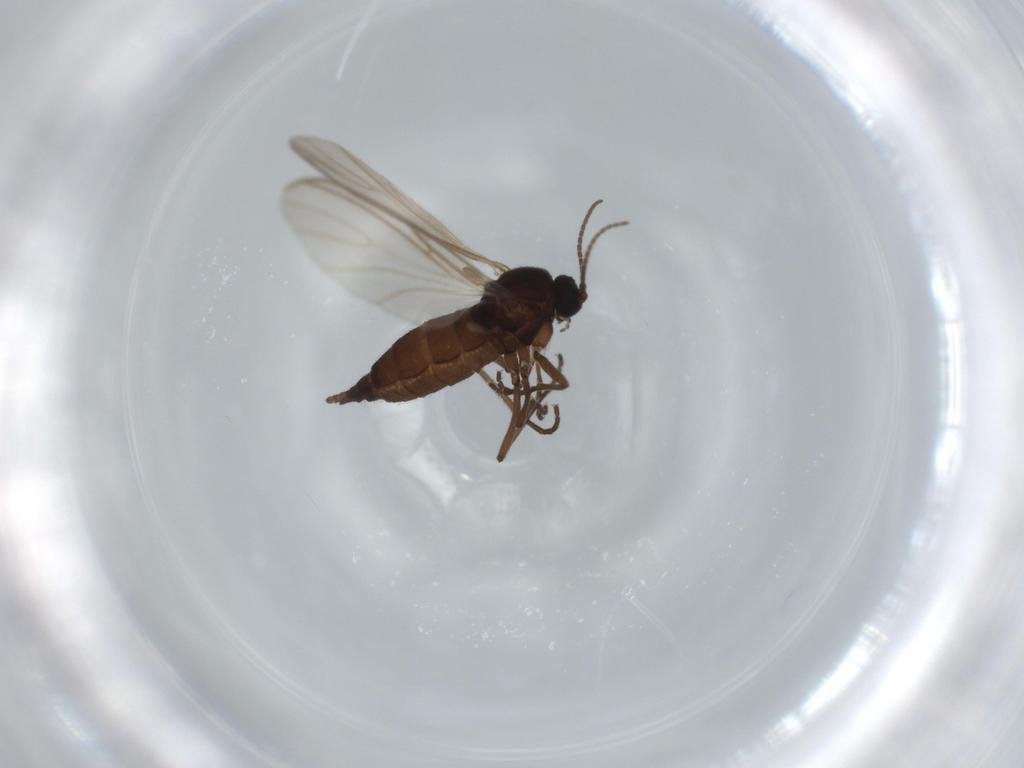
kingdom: Animalia
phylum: Arthropoda
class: Insecta
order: Diptera
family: Sciaridae
